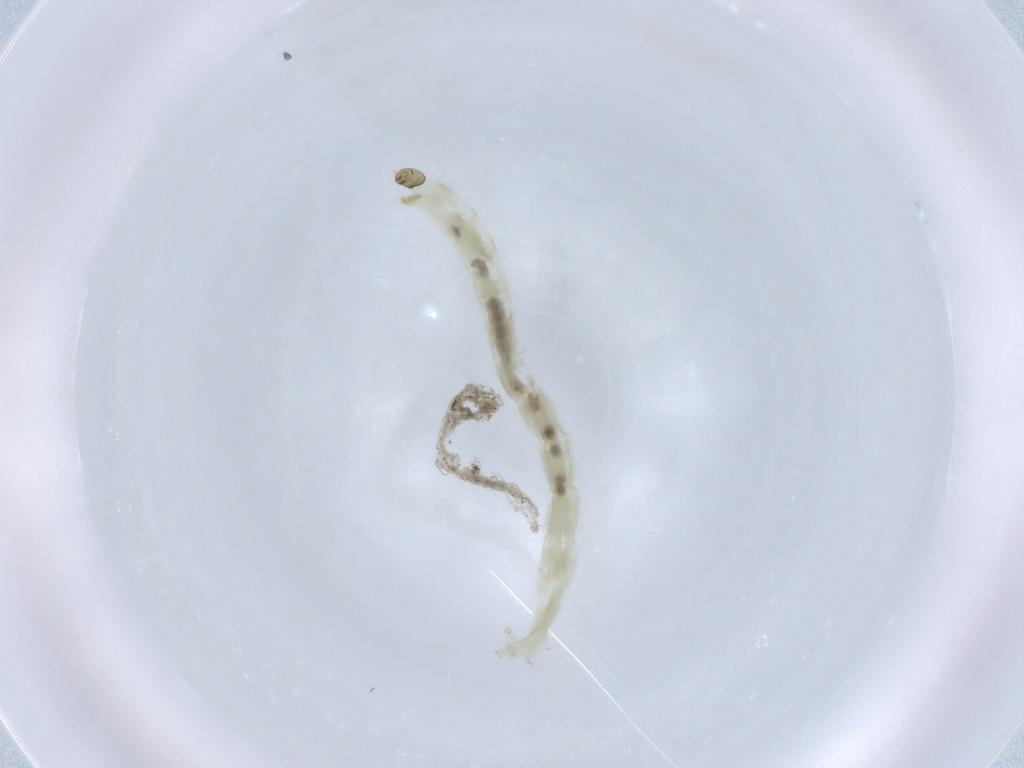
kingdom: Animalia
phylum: Arthropoda
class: Insecta
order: Diptera
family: Chironomidae
